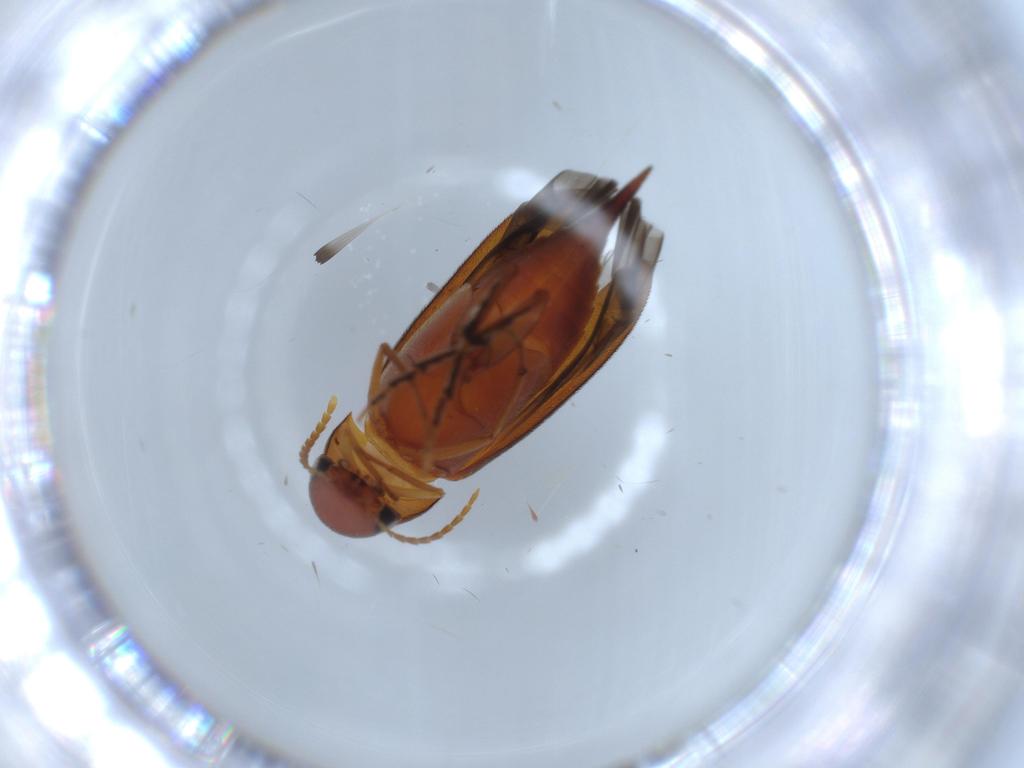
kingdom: Animalia
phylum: Arthropoda
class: Insecta
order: Coleoptera
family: Mordellidae
